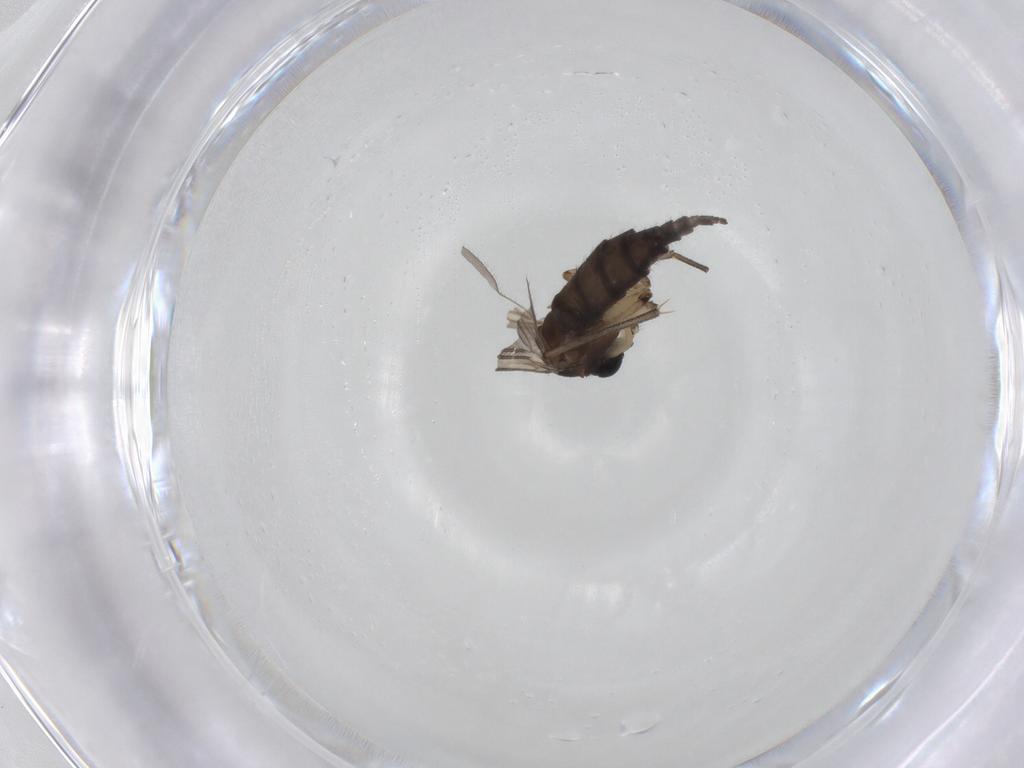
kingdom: Animalia
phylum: Arthropoda
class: Insecta
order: Diptera
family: Sciaridae
